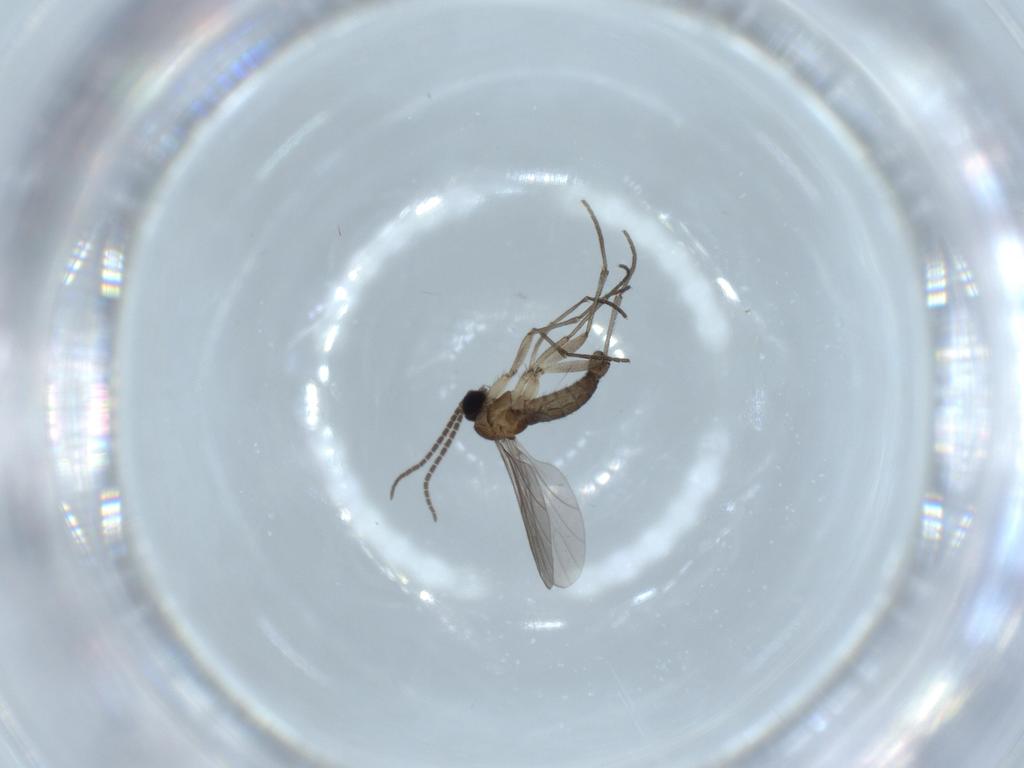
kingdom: Animalia
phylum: Arthropoda
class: Insecta
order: Diptera
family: Sciaridae
